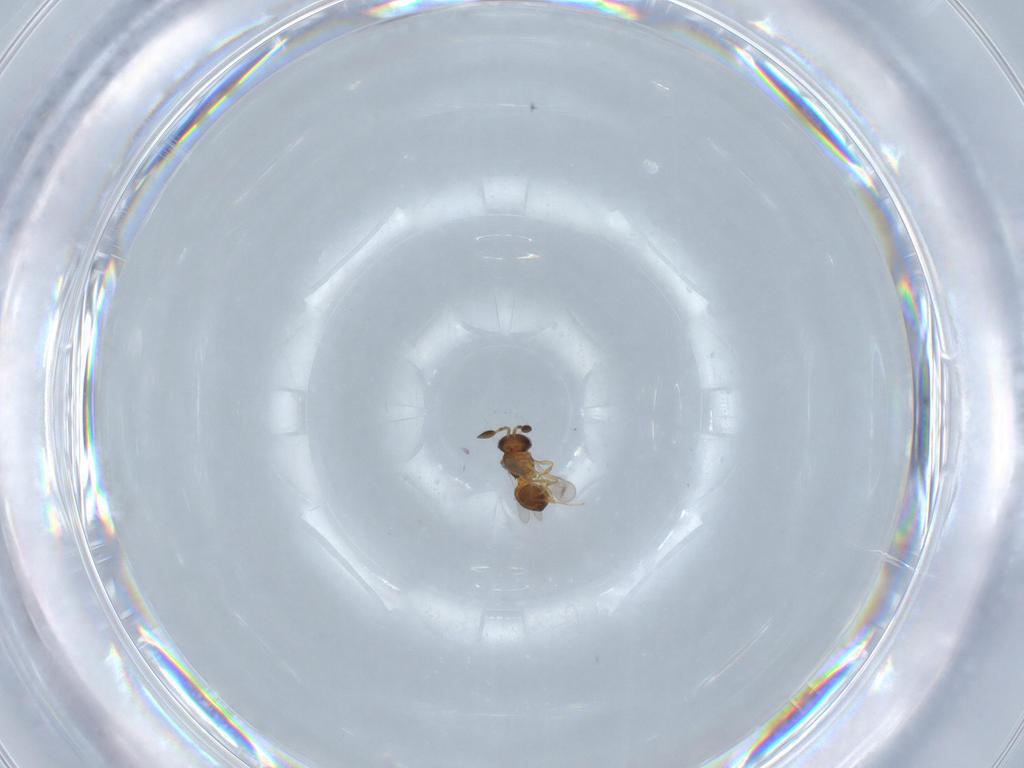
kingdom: Animalia
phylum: Arthropoda
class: Insecta
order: Hymenoptera
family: Scelionidae
